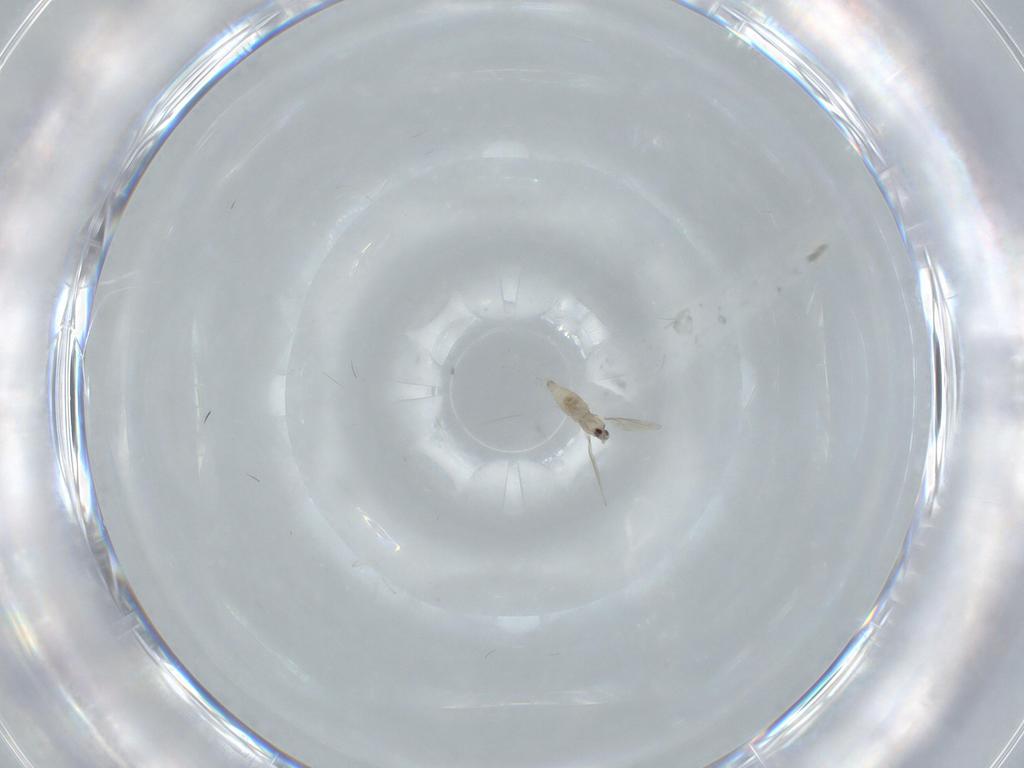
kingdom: Animalia
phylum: Arthropoda
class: Insecta
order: Diptera
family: Cecidomyiidae
